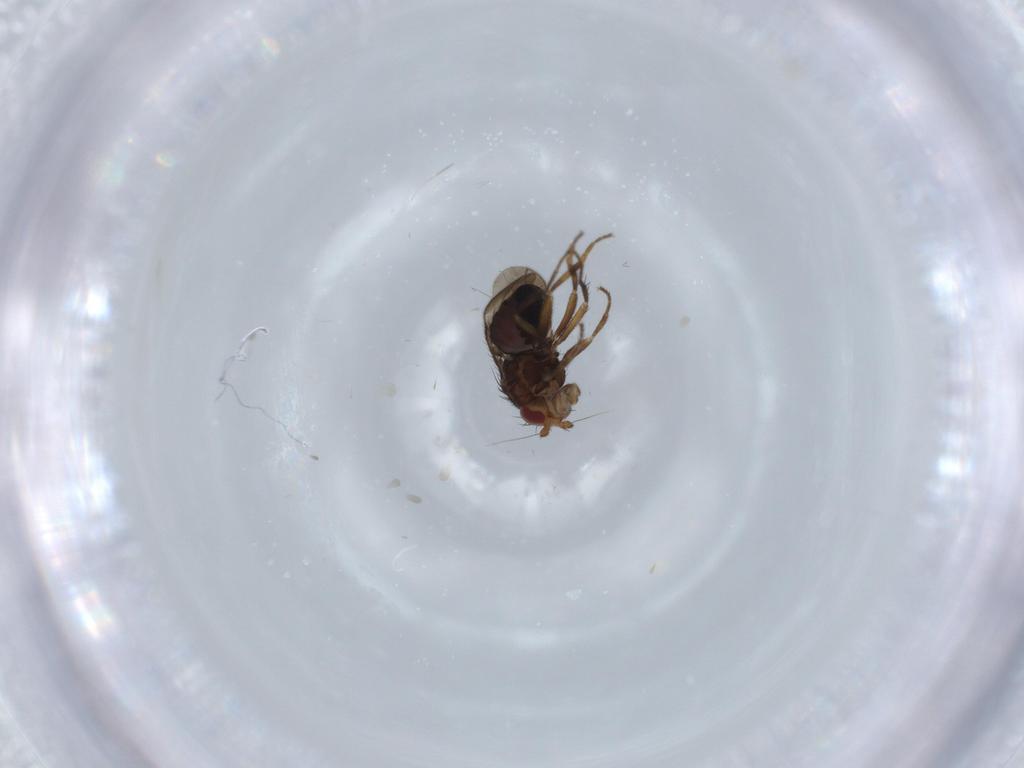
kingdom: Animalia
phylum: Arthropoda
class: Insecta
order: Diptera
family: Sphaeroceridae
